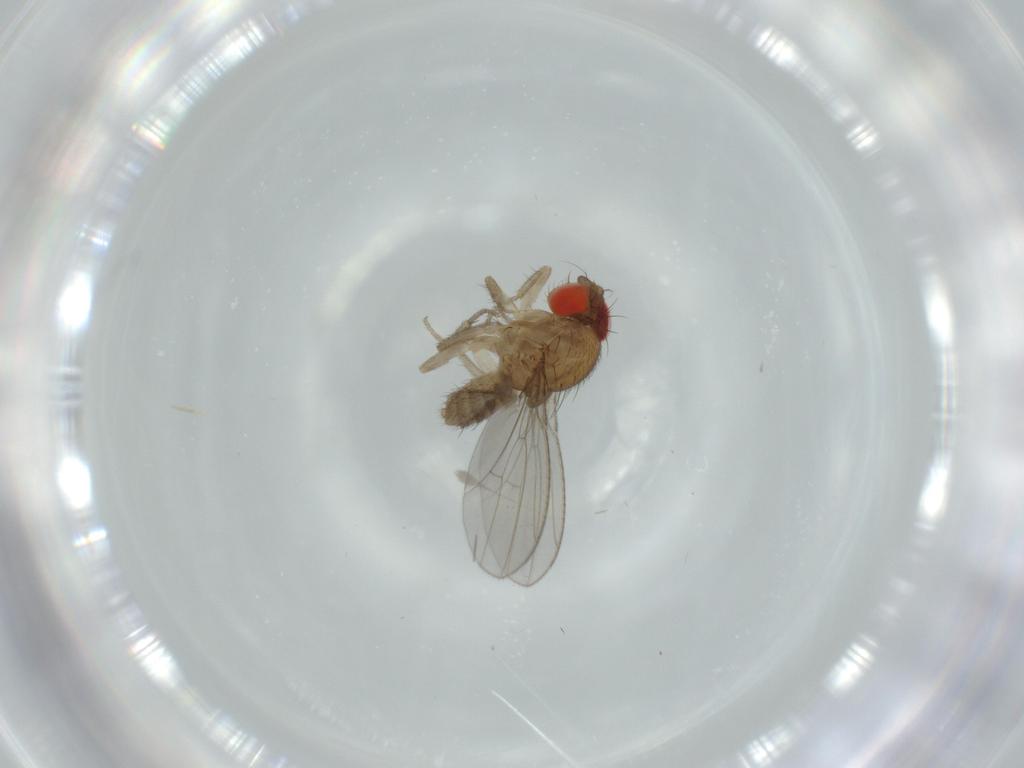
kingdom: Animalia
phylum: Arthropoda
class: Insecta
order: Diptera
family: Drosophilidae
